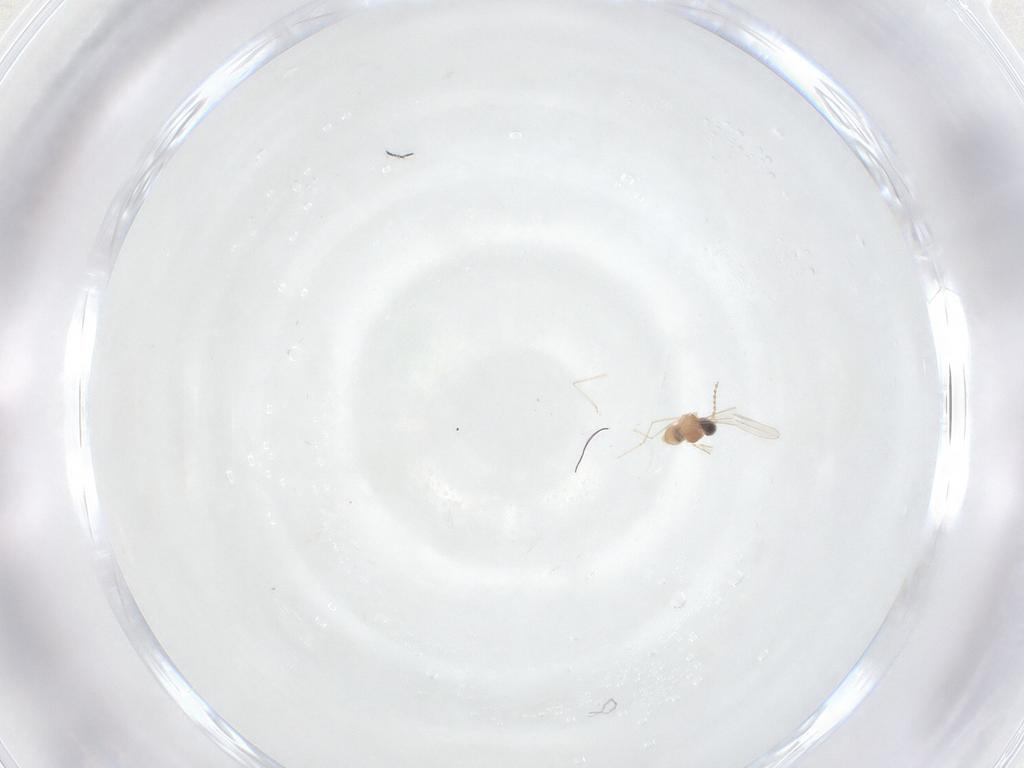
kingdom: Animalia
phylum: Arthropoda
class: Insecta
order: Diptera
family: Cecidomyiidae
